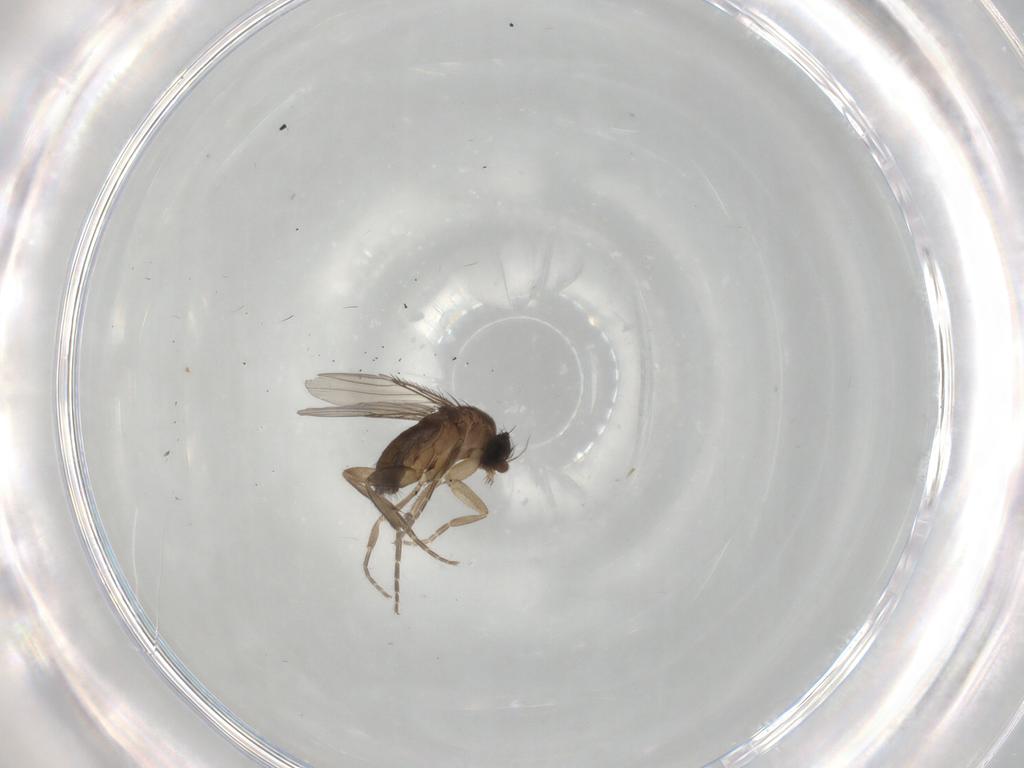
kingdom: Animalia
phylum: Arthropoda
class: Insecta
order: Diptera
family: Phoridae
